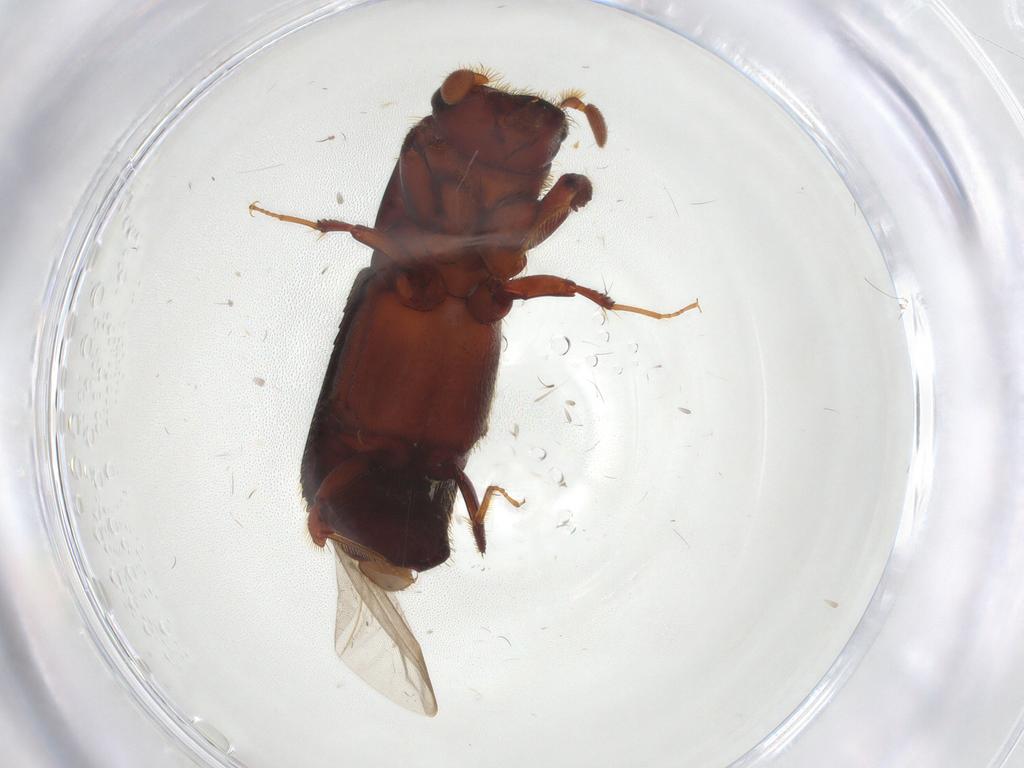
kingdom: Animalia
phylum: Arthropoda
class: Insecta
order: Coleoptera
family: Curculionidae
